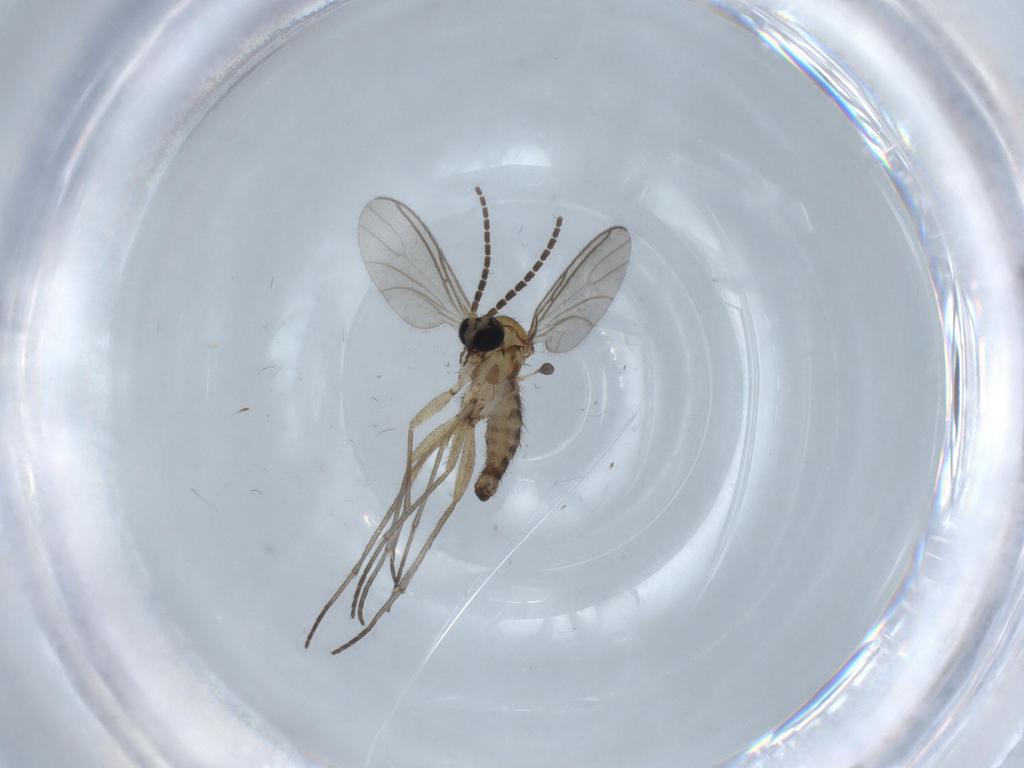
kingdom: Animalia
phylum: Arthropoda
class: Insecta
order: Diptera
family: Sciaridae
